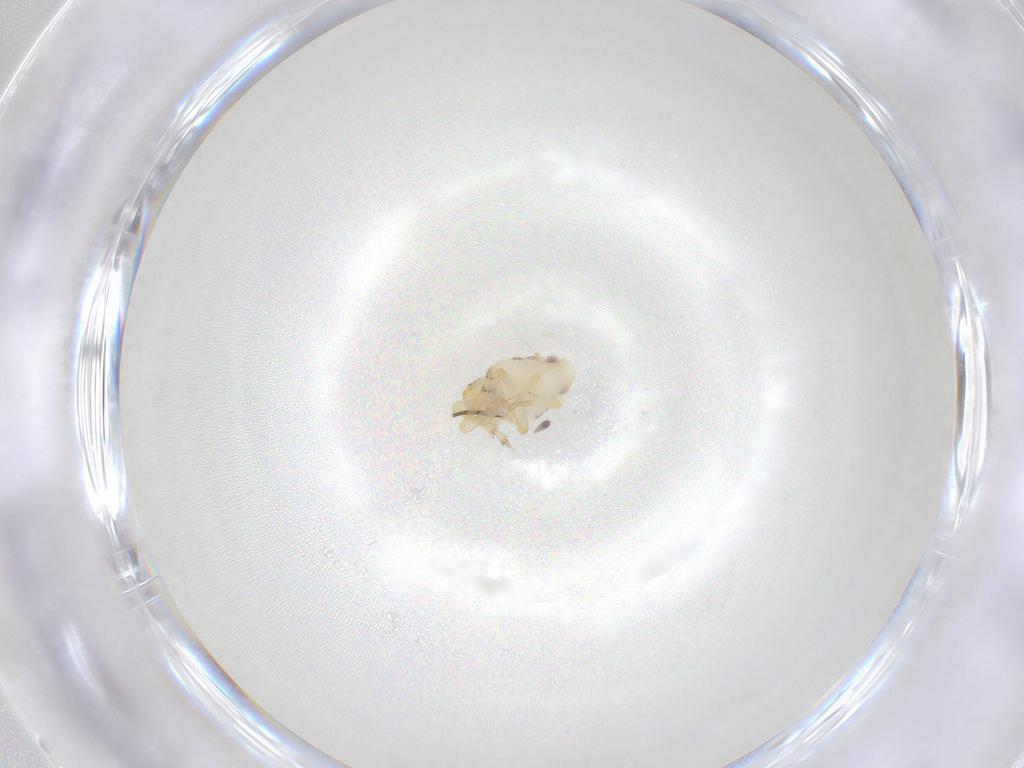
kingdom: Animalia
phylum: Arthropoda
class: Insecta
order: Hemiptera
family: Flatidae
